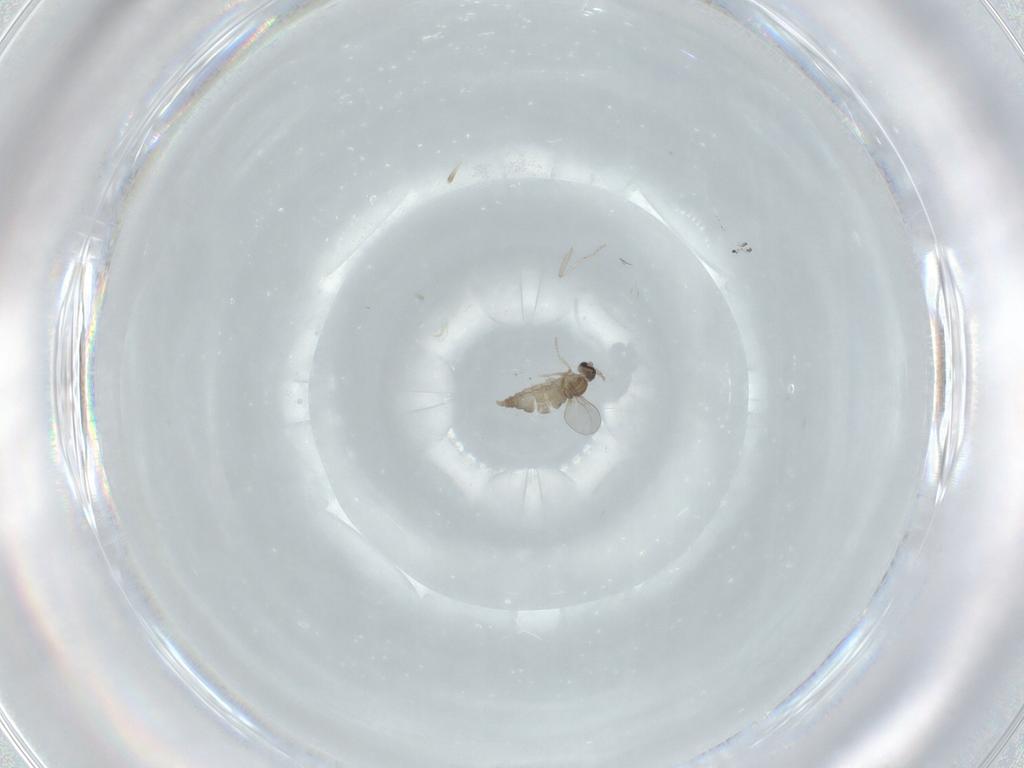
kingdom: Animalia
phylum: Arthropoda
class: Insecta
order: Diptera
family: Cecidomyiidae
